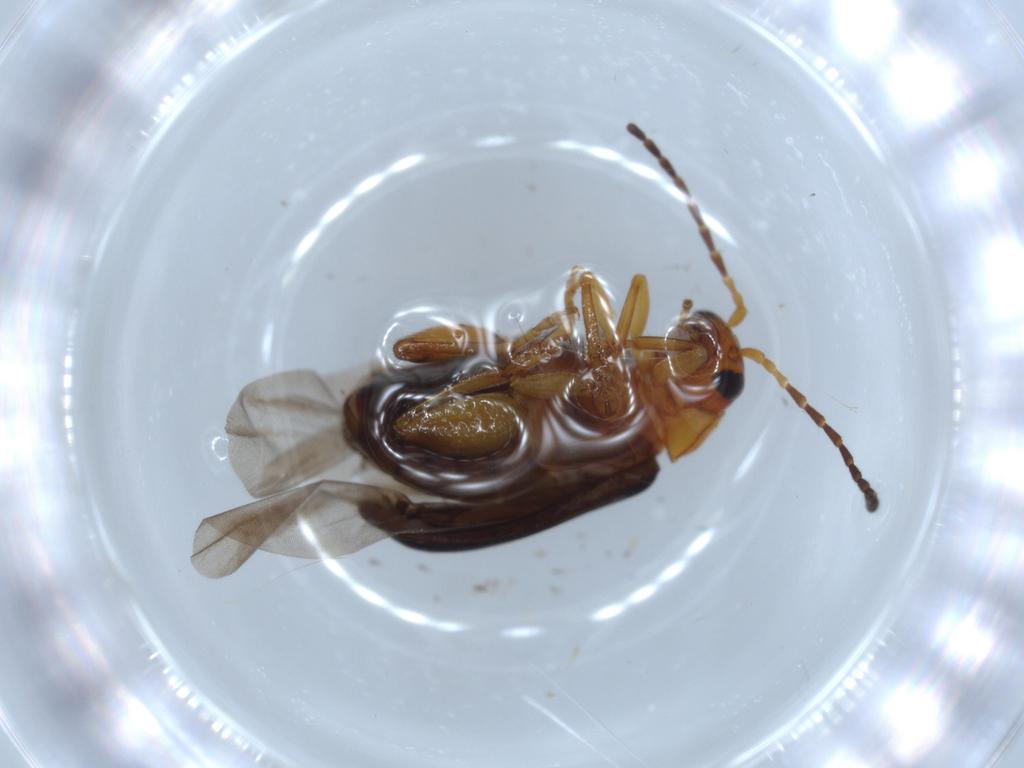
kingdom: Animalia
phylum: Arthropoda
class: Insecta
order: Coleoptera
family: Chrysomelidae
